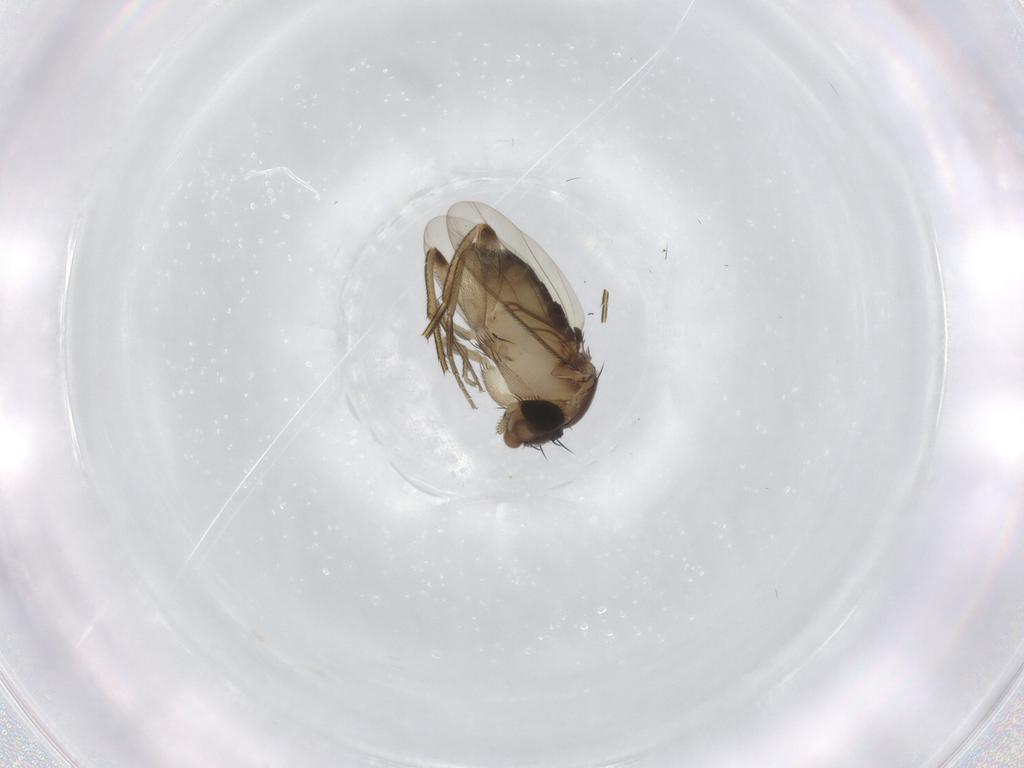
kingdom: Animalia
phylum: Arthropoda
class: Insecta
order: Diptera
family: Phoridae
